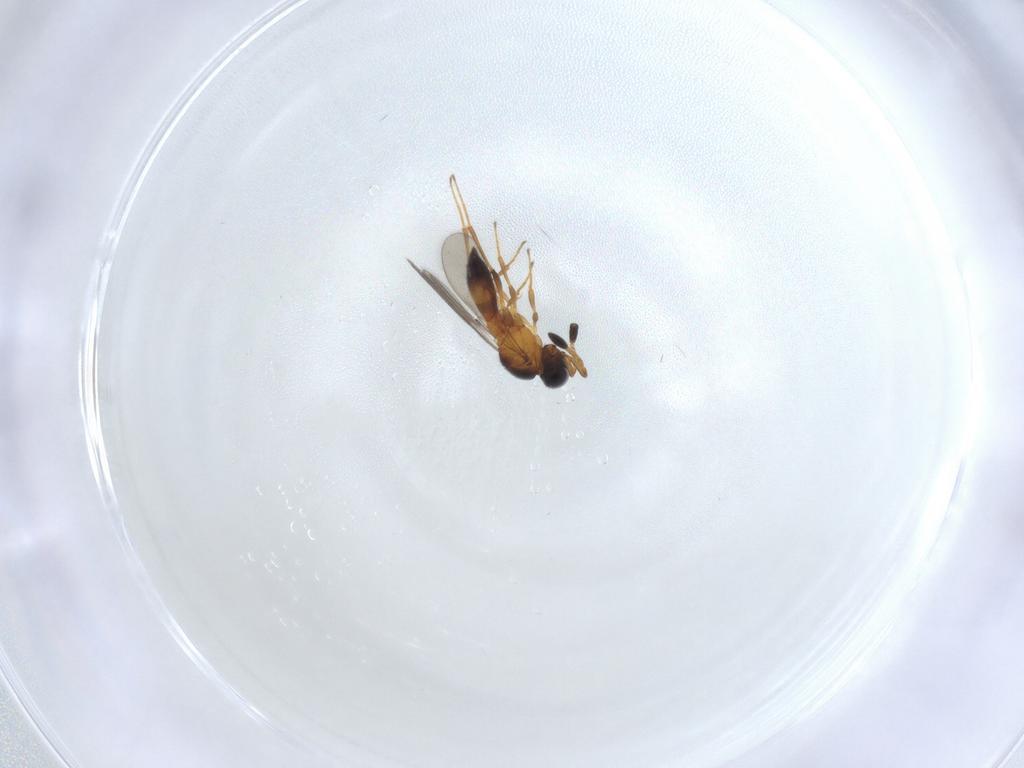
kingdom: Animalia
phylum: Arthropoda
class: Insecta
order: Hymenoptera
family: Scelionidae
